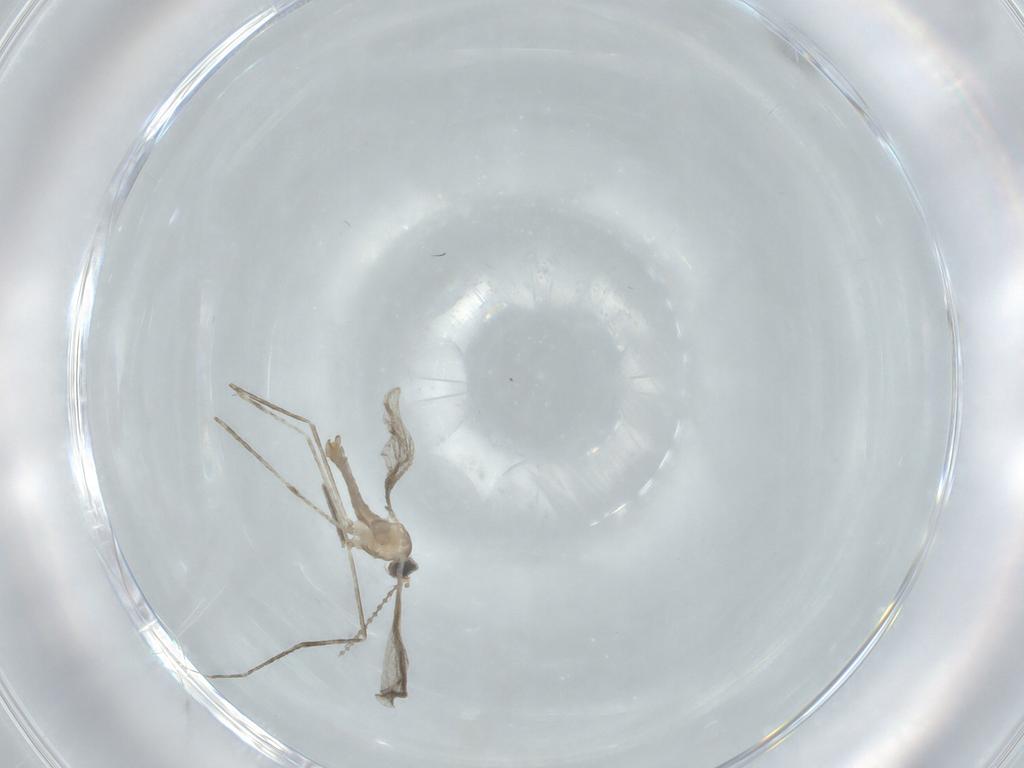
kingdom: Animalia
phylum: Arthropoda
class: Insecta
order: Diptera
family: Cecidomyiidae
